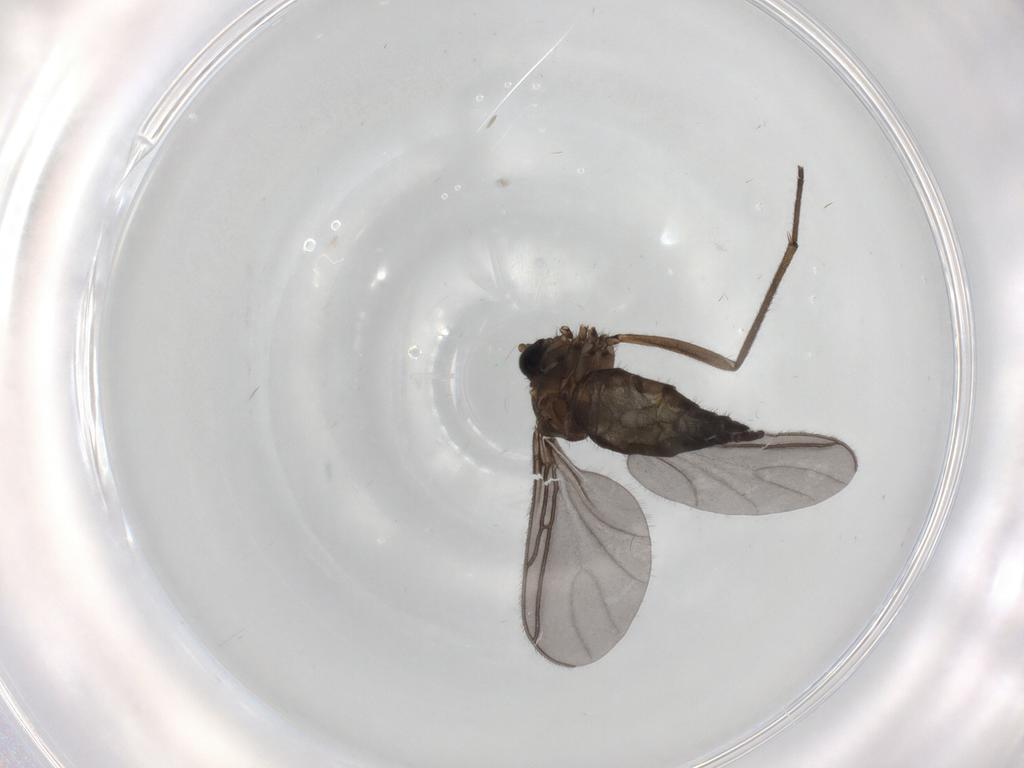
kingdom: Animalia
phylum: Arthropoda
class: Insecta
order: Diptera
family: Sciaridae
